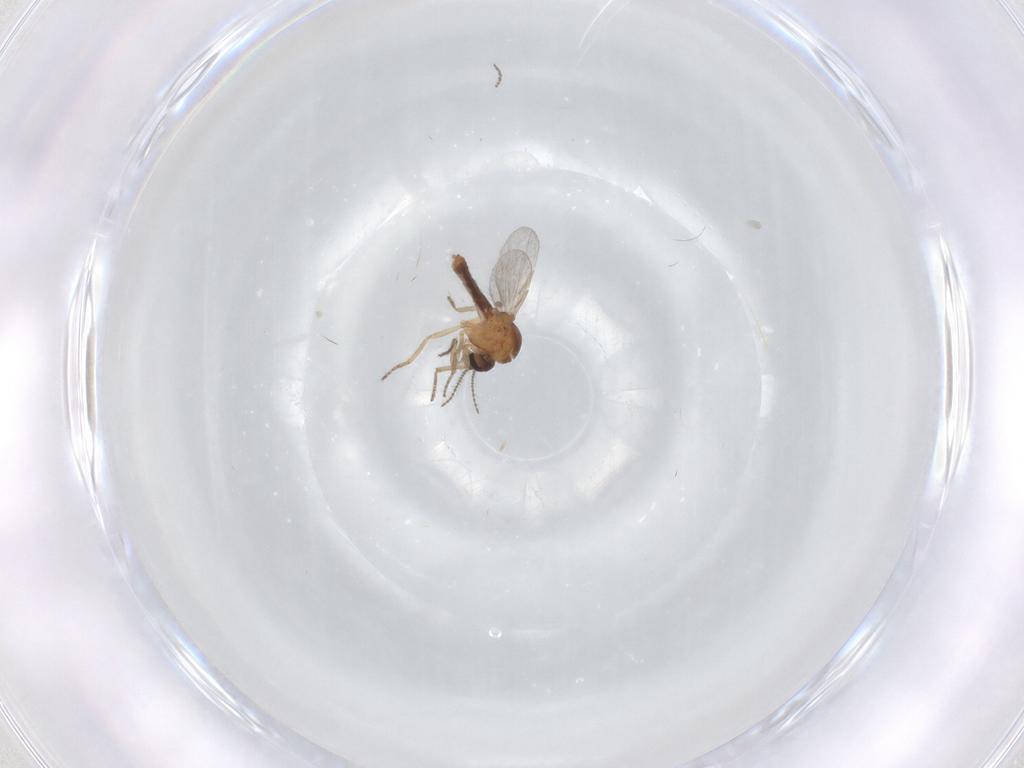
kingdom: Animalia
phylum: Arthropoda
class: Insecta
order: Diptera
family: Ceratopogonidae
